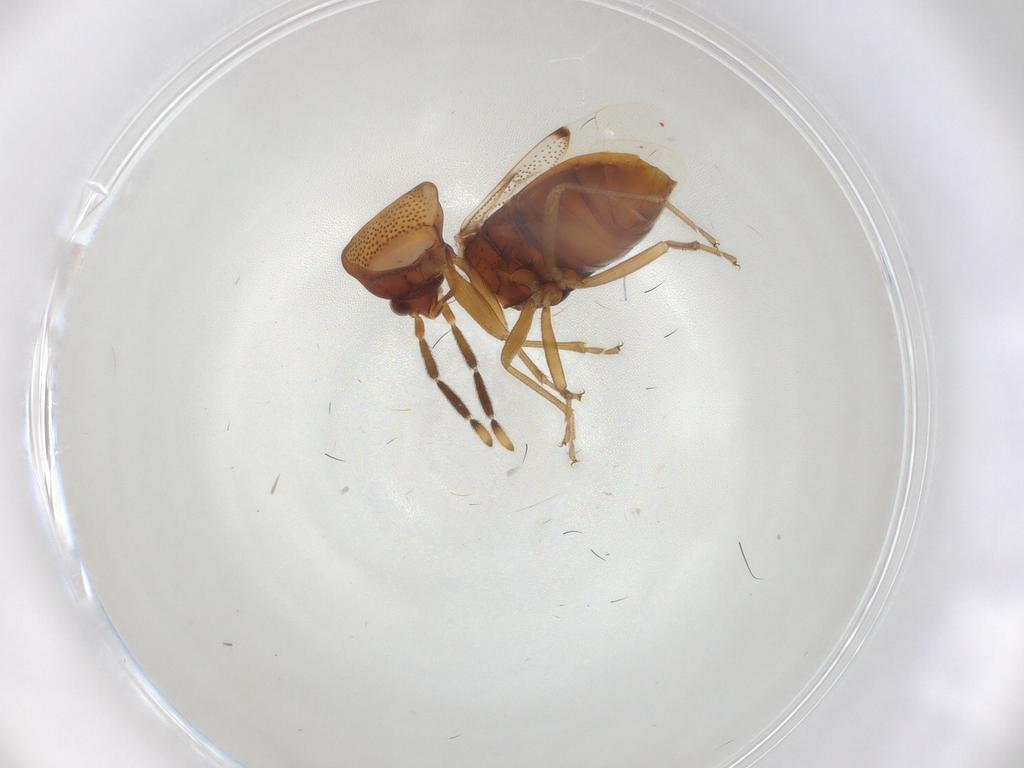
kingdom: Animalia
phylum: Arthropoda
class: Insecta
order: Hemiptera
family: Rhyparochromidae
